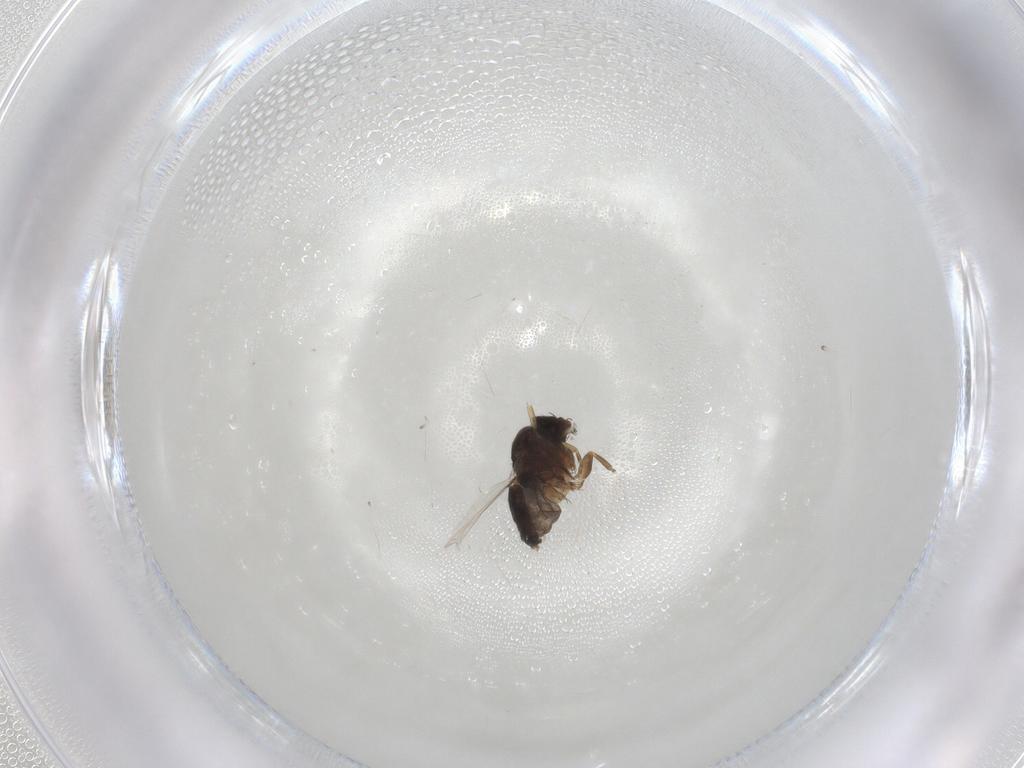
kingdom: Animalia
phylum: Arthropoda
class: Insecta
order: Diptera
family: Phoridae
